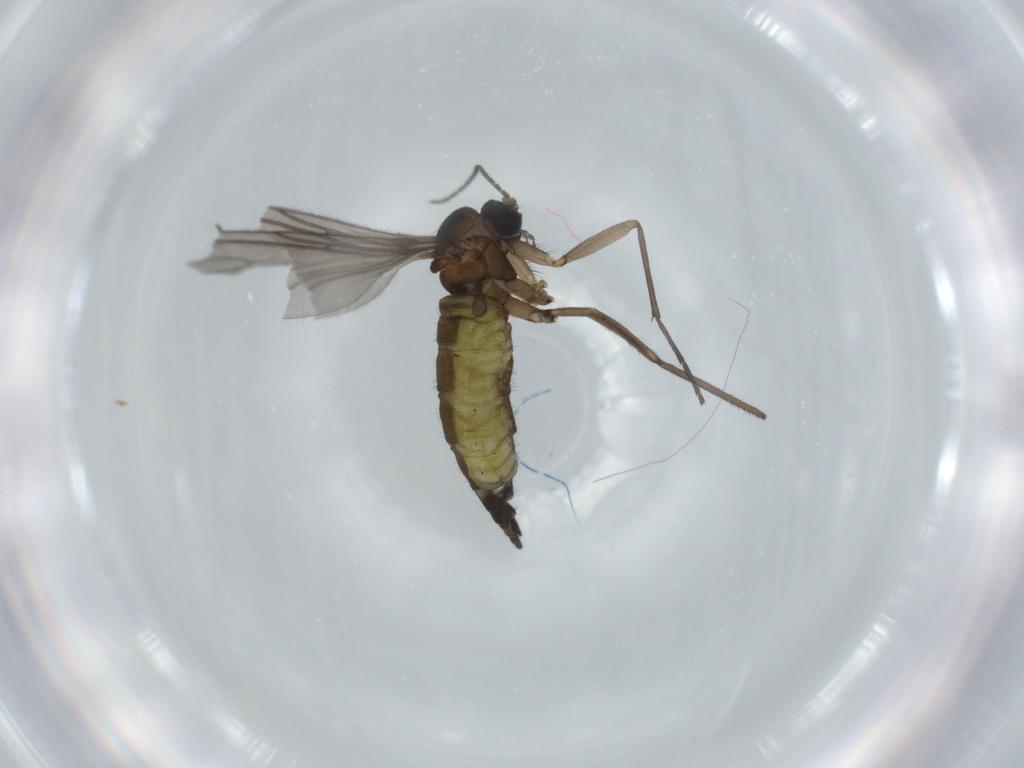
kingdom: Animalia
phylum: Arthropoda
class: Insecta
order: Diptera
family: Sciaridae
